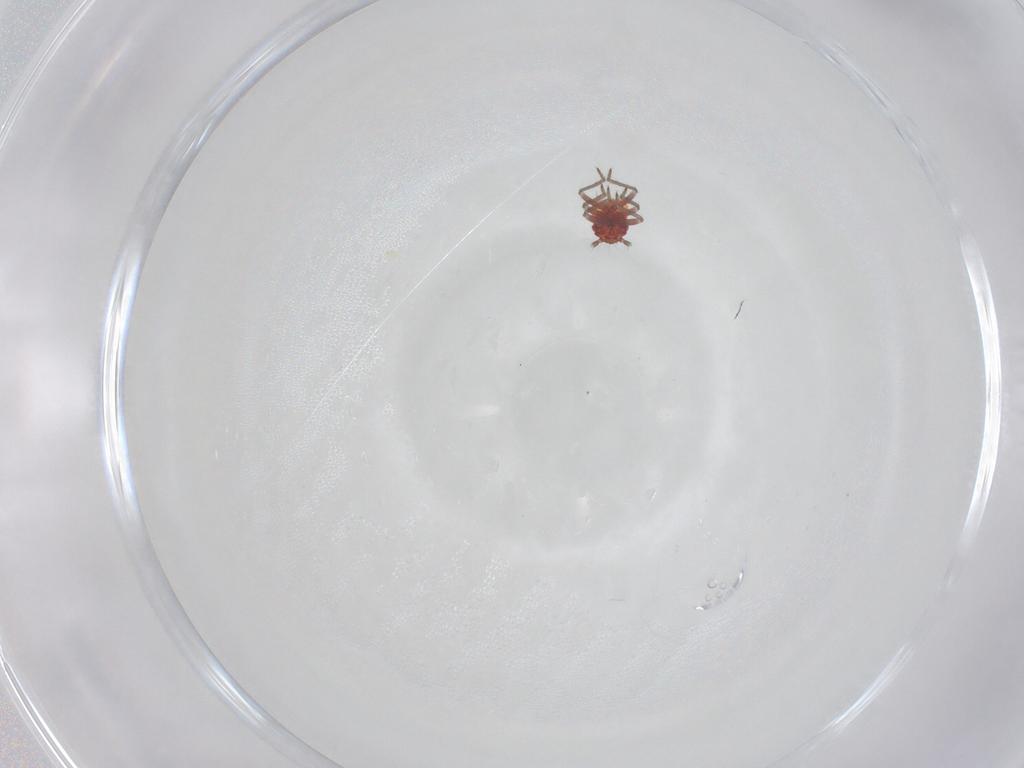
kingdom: Animalia
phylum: Arthropoda
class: Insecta
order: Hemiptera
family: Schizopteridae
